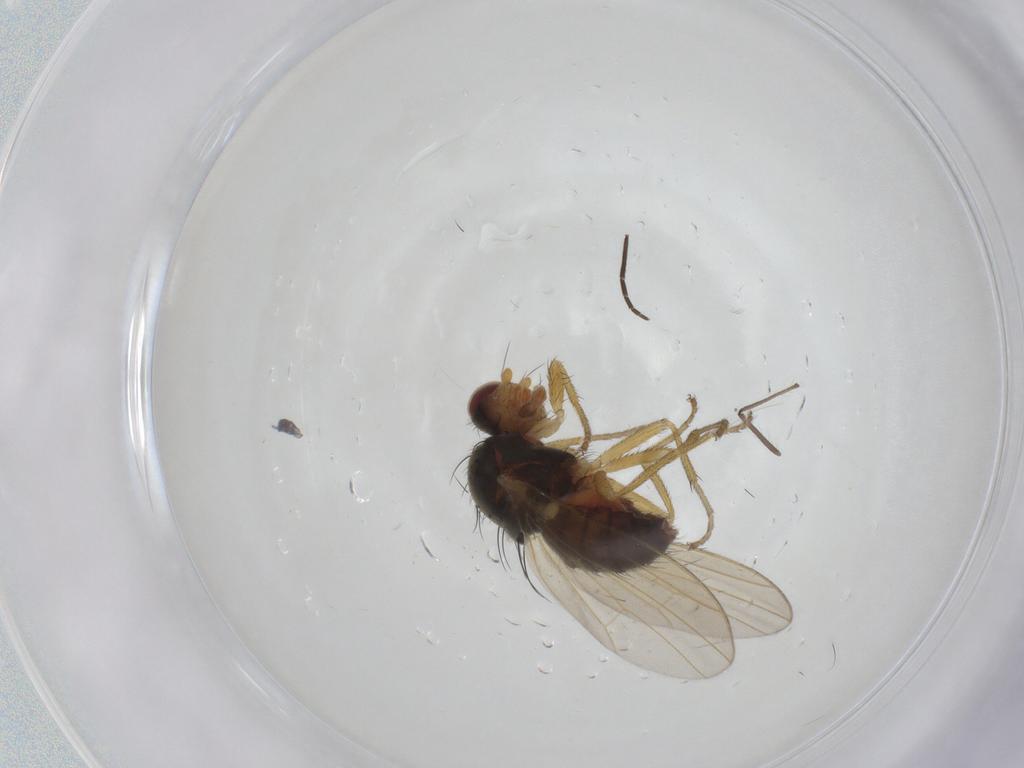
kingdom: Animalia
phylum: Arthropoda
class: Insecta
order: Diptera
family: Heleomyzidae
